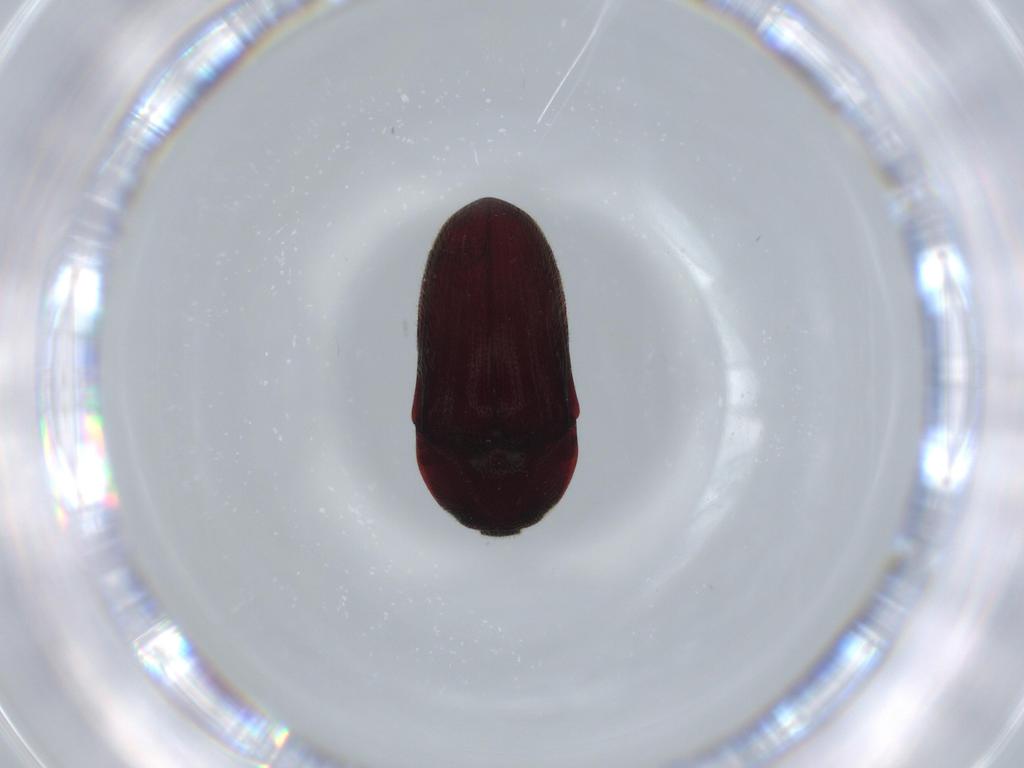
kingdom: Animalia
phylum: Arthropoda
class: Insecta
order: Coleoptera
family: Throscidae
